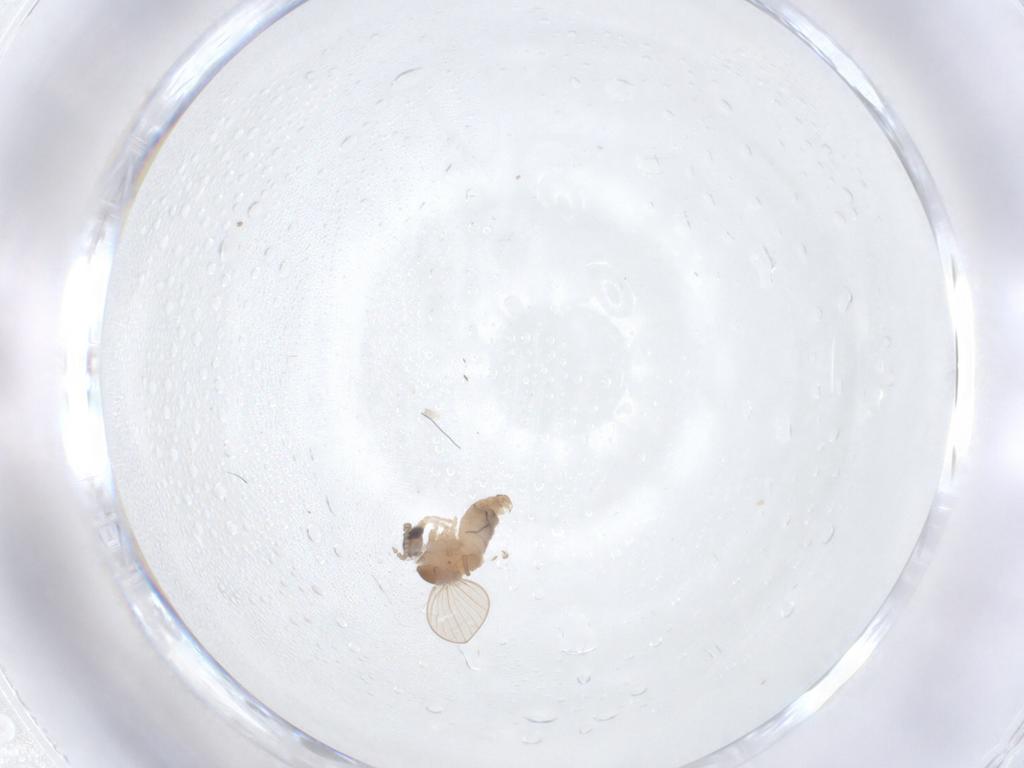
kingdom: Animalia
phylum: Arthropoda
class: Insecta
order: Diptera
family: Psychodidae
